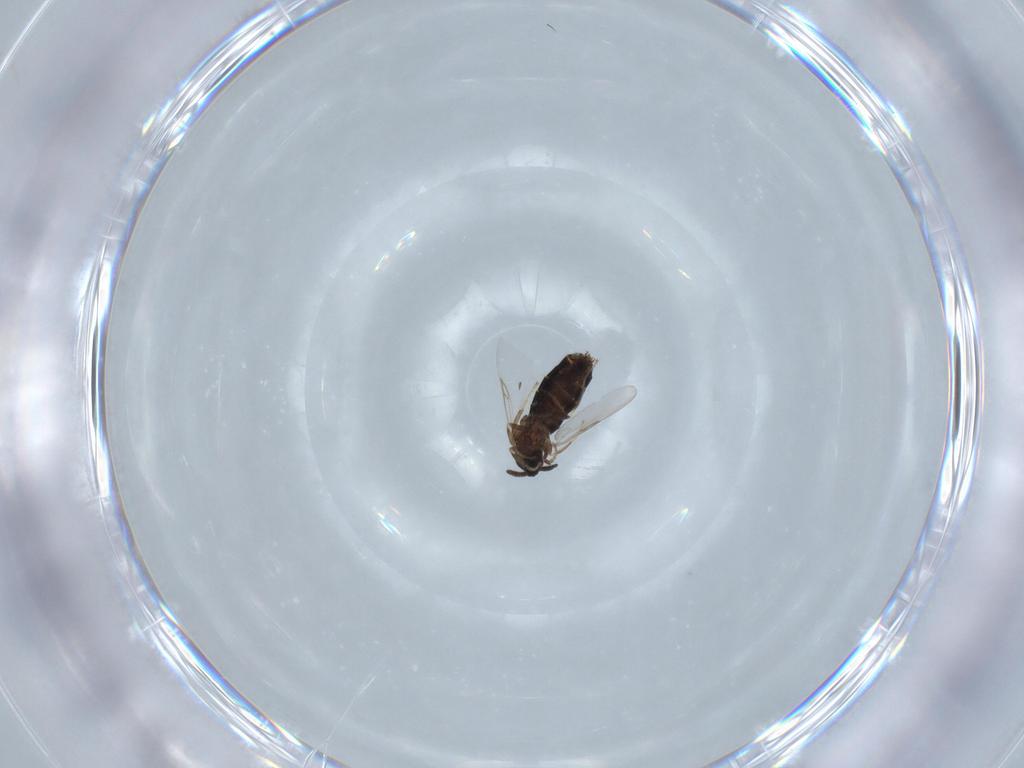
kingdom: Animalia
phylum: Arthropoda
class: Insecta
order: Diptera
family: Scatopsidae
